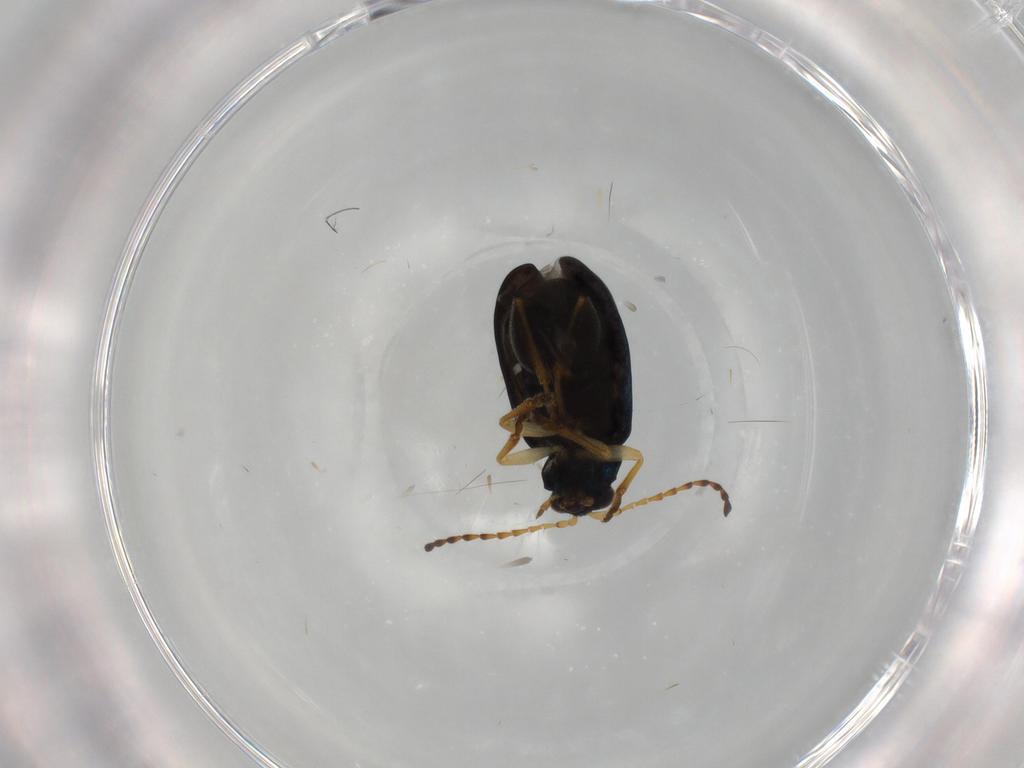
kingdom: Animalia
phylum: Arthropoda
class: Insecta
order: Coleoptera
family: Chrysomelidae
